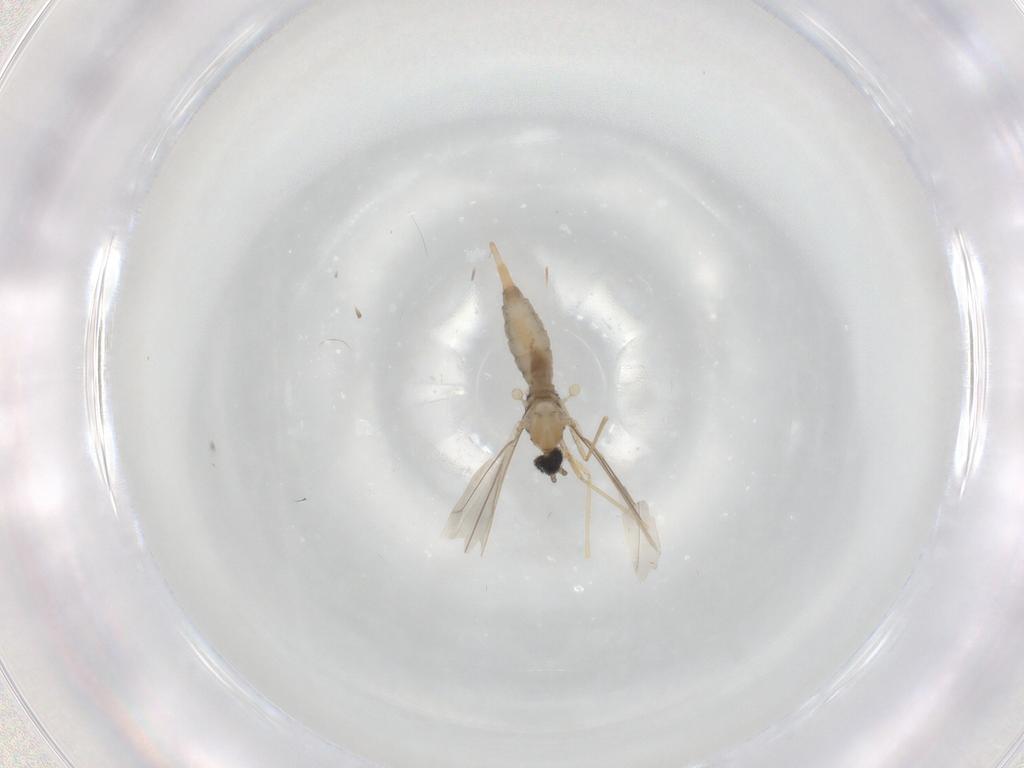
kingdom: Animalia
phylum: Arthropoda
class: Insecta
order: Diptera
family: Cecidomyiidae
